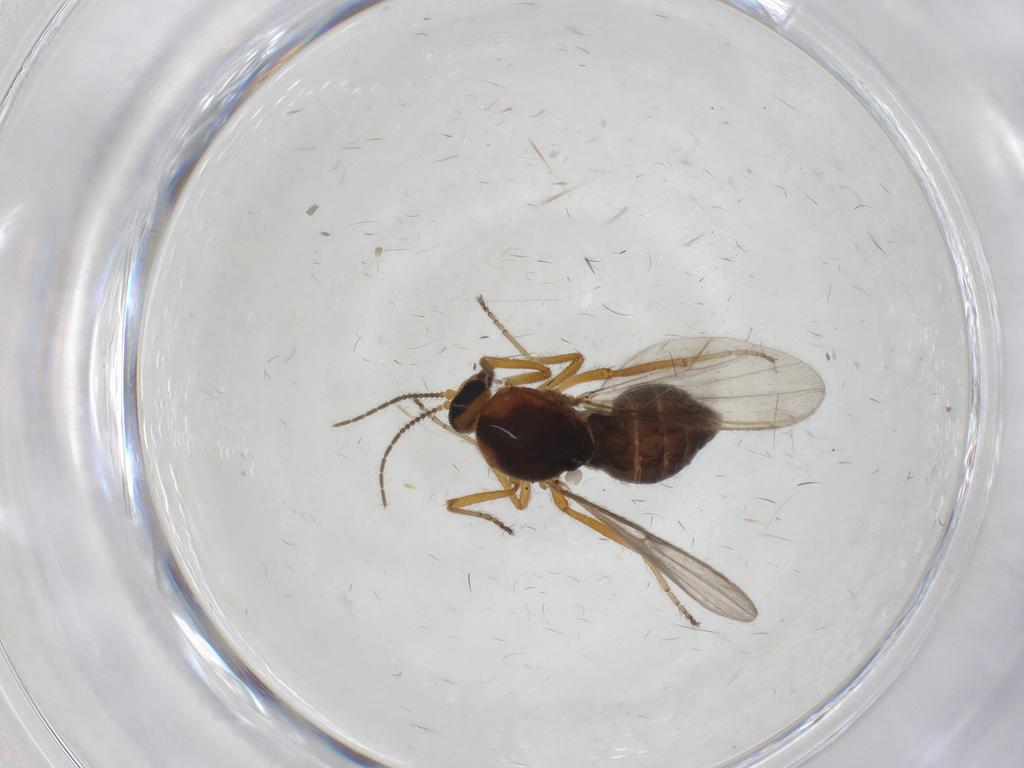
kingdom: Animalia
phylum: Arthropoda
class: Insecta
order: Diptera
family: Ceratopogonidae
